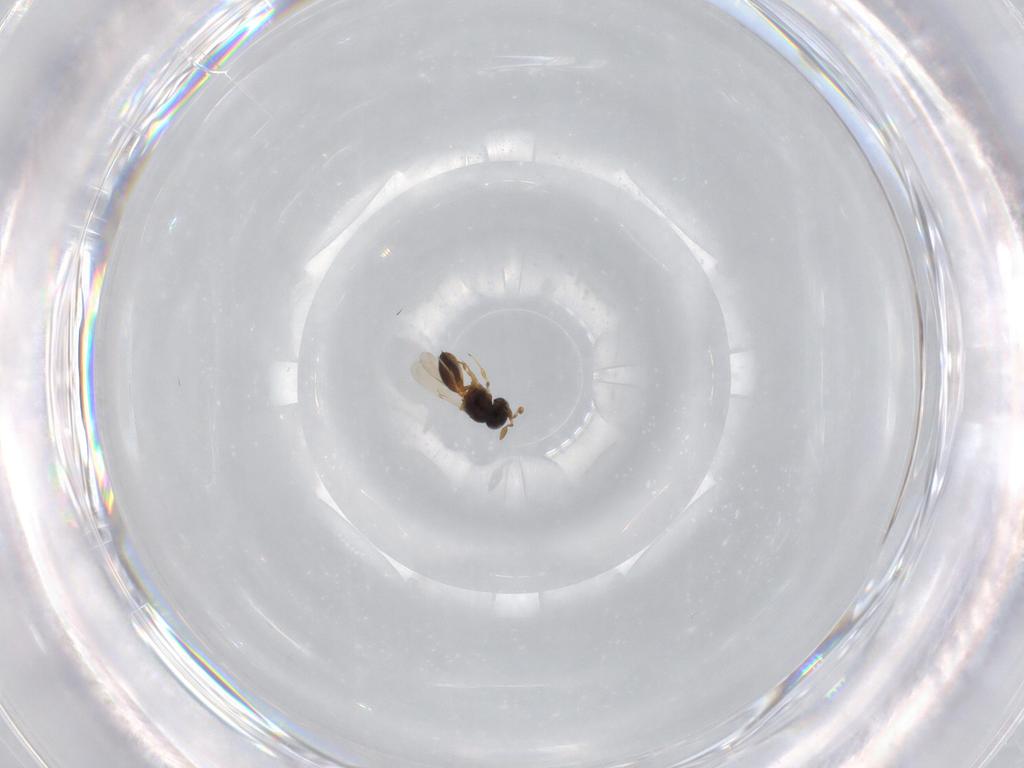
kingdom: Animalia
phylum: Arthropoda
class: Insecta
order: Hymenoptera
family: Scelionidae
